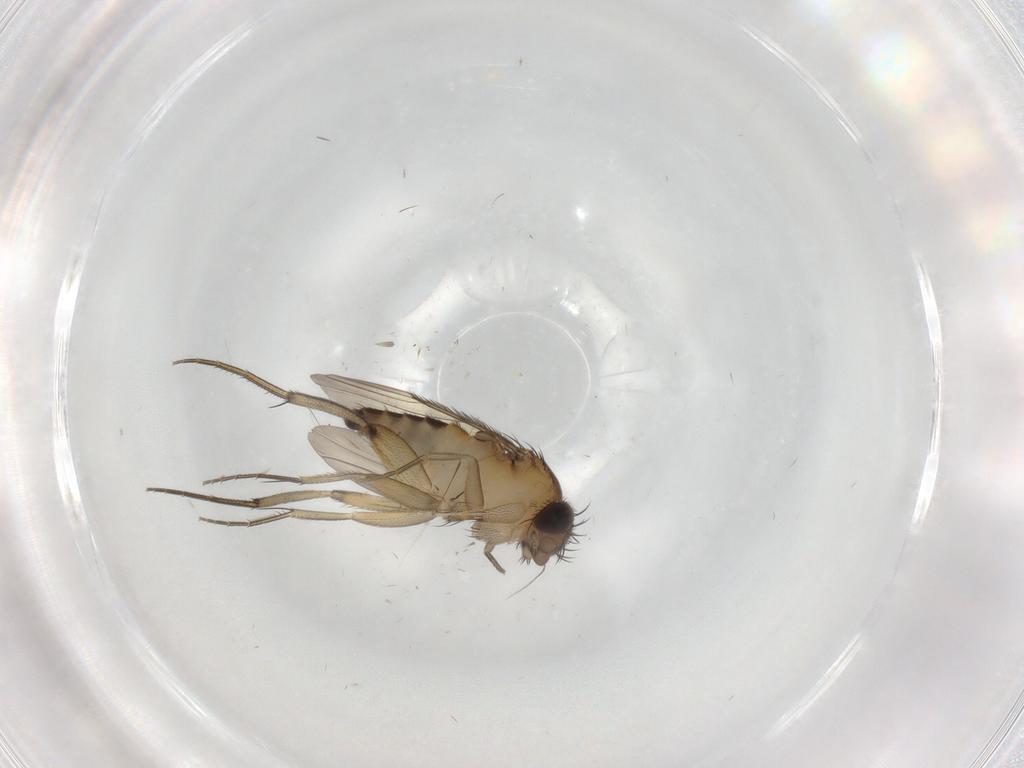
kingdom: Animalia
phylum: Arthropoda
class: Insecta
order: Diptera
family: Phoridae
